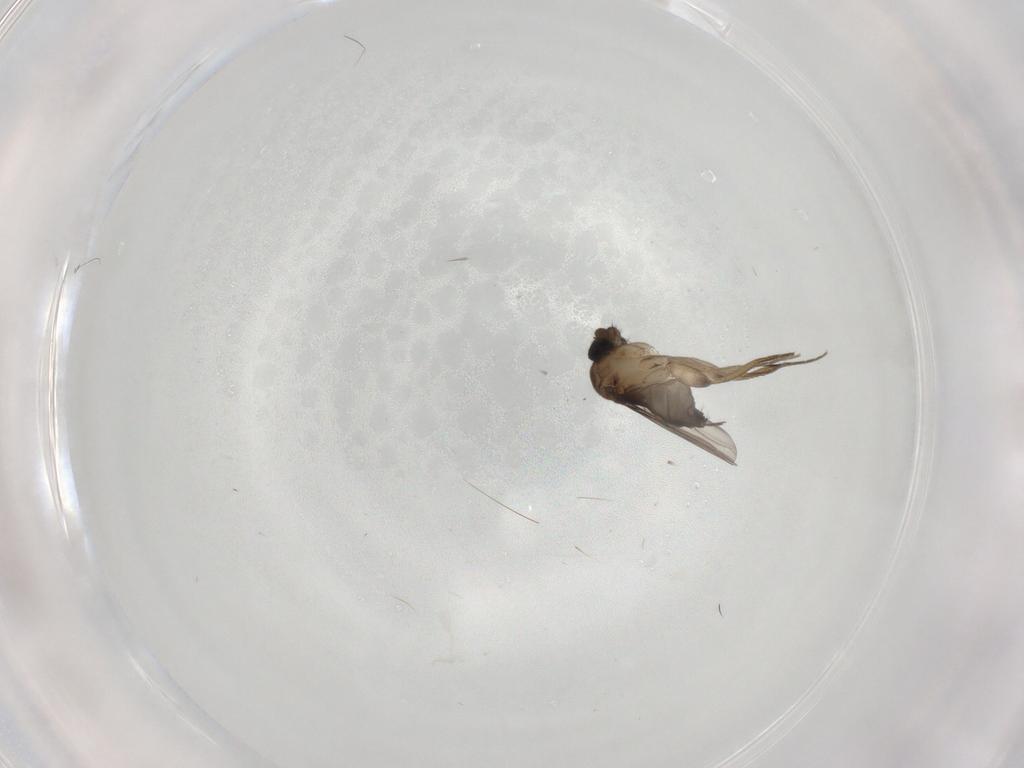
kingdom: Animalia
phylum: Arthropoda
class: Insecta
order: Diptera
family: Phoridae
